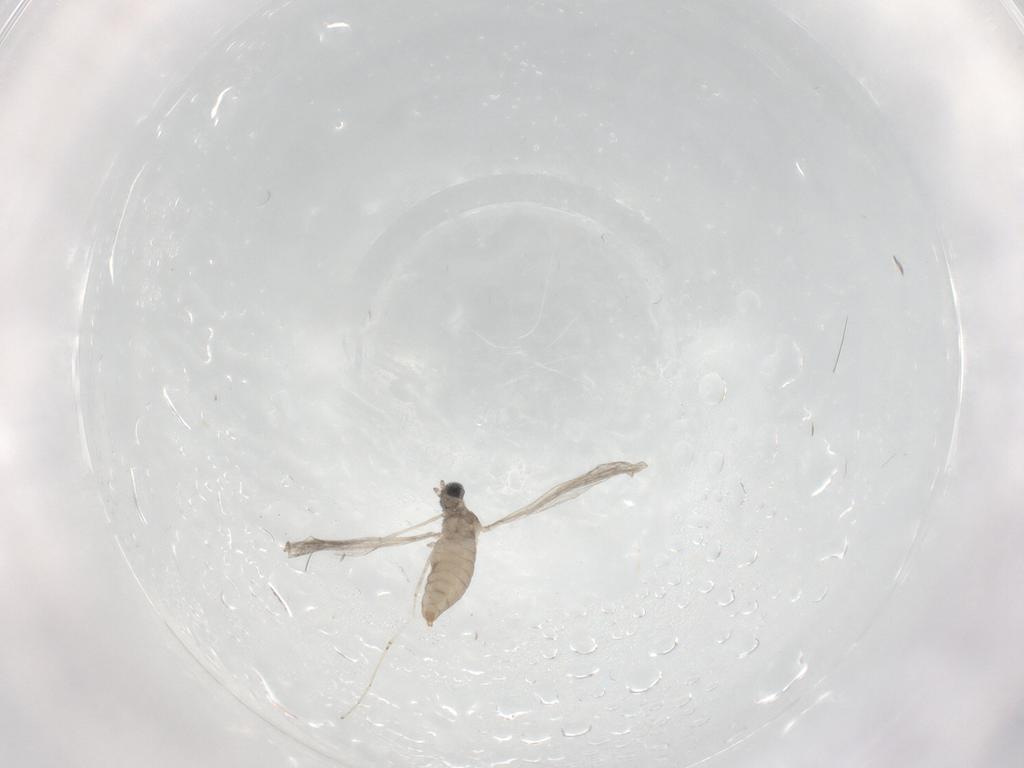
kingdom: Animalia
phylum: Arthropoda
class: Insecta
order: Diptera
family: Cecidomyiidae
